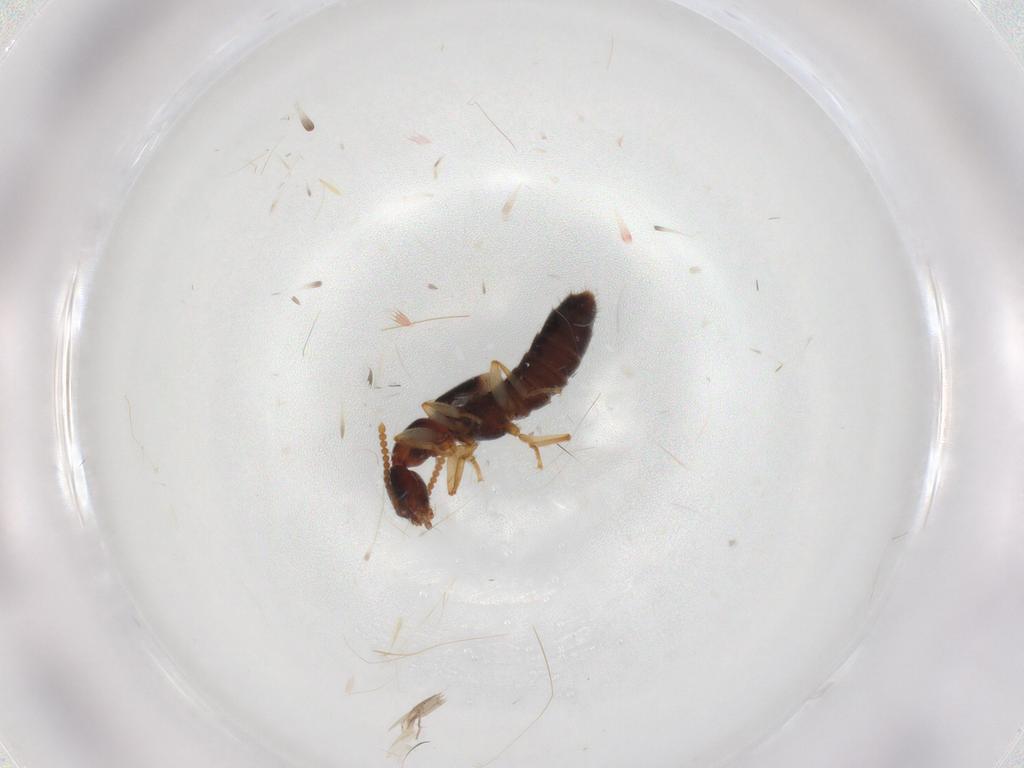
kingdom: Animalia
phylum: Arthropoda
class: Insecta
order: Coleoptera
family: Staphylinidae
